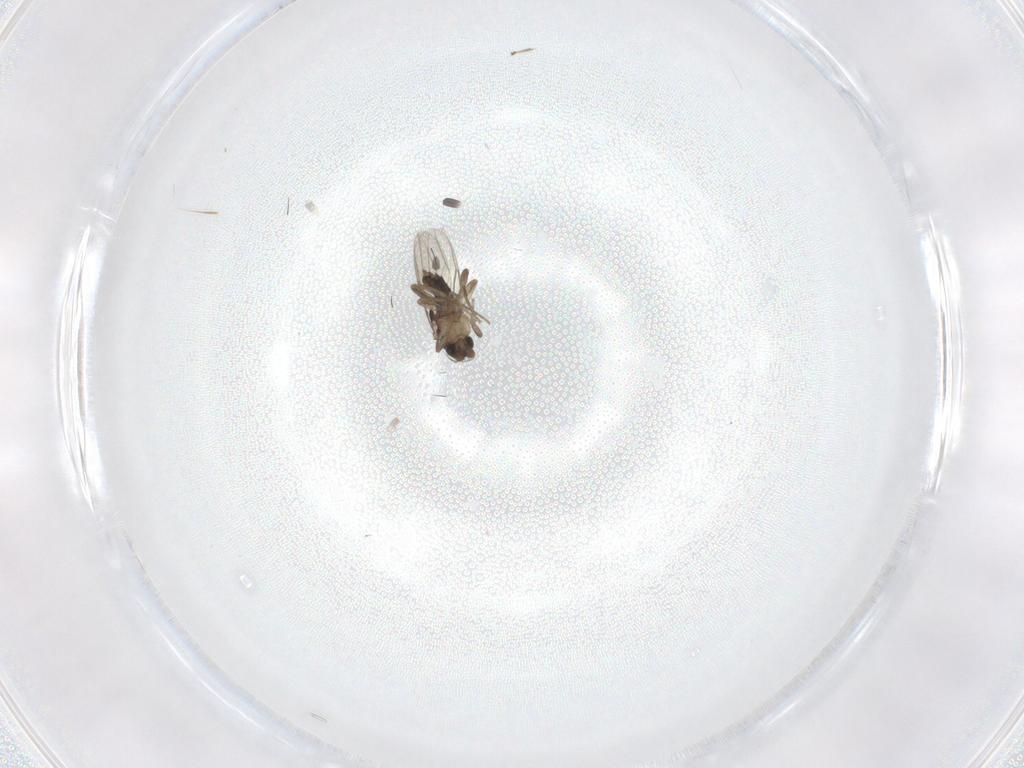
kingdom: Animalia
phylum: Arthropoda
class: Insecta
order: Diptera
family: Phoridae
